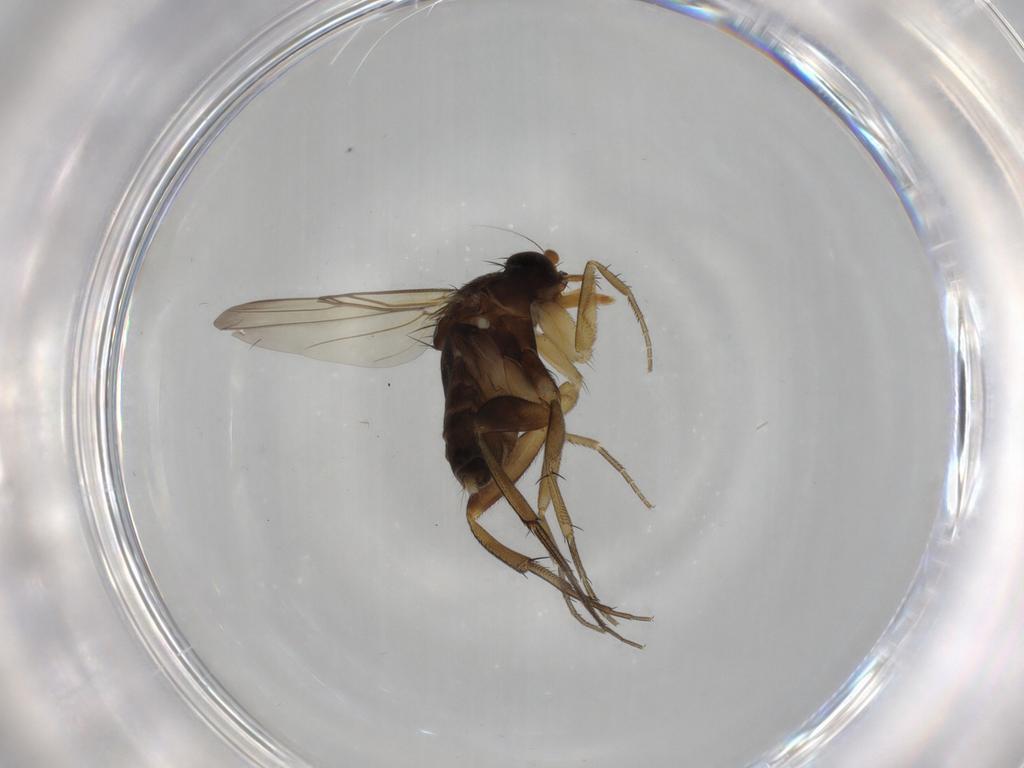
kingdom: Animalia
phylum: Arthropoda
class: Insecta
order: Diptera
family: Phoridae
